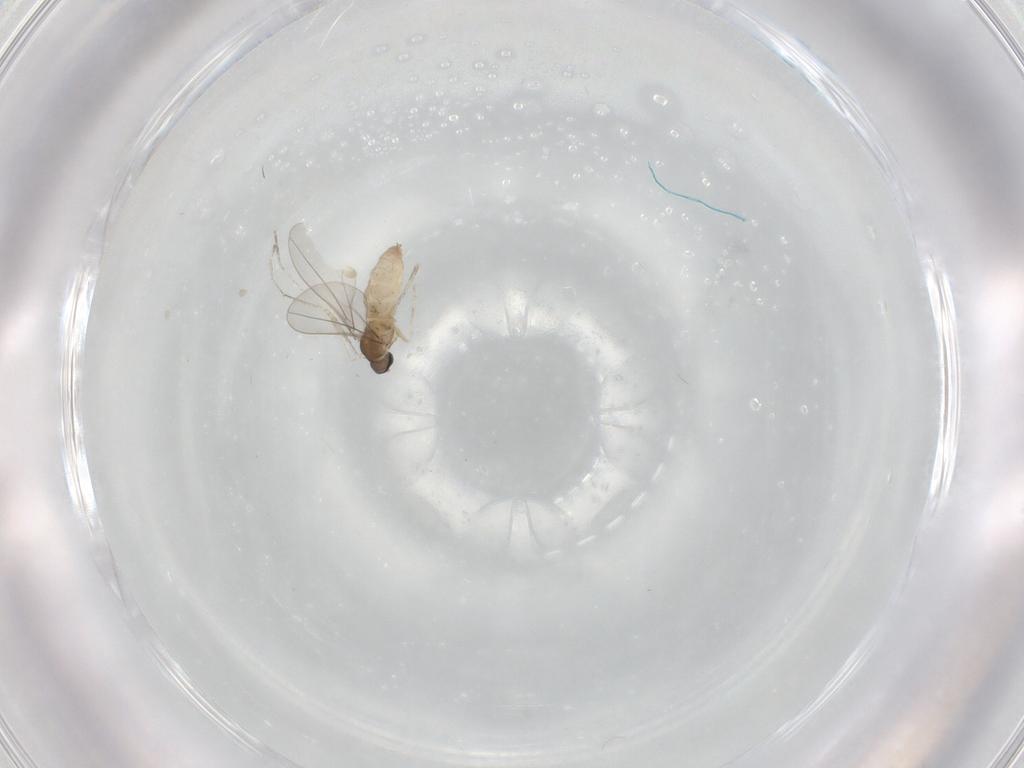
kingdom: Animalia
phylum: Arthropoda
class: Insecta
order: Diptera
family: Cecidomyiidae
